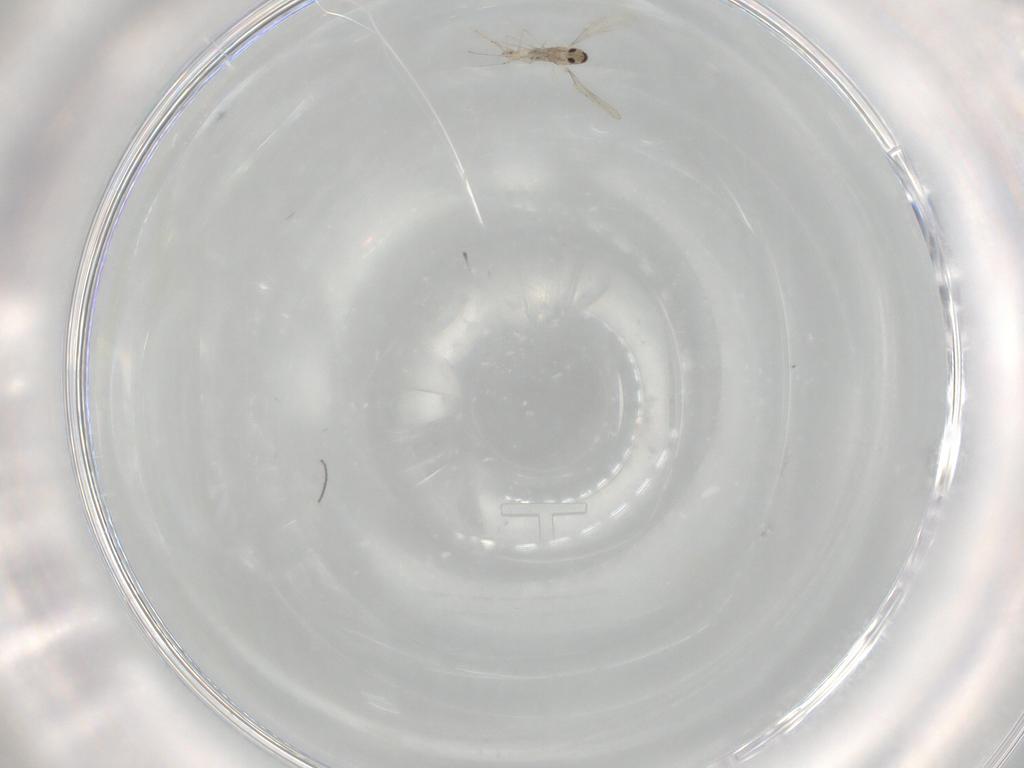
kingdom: Animalia
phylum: Arthropoda
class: Insecta
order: Diptera
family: Cecidomyiidae
